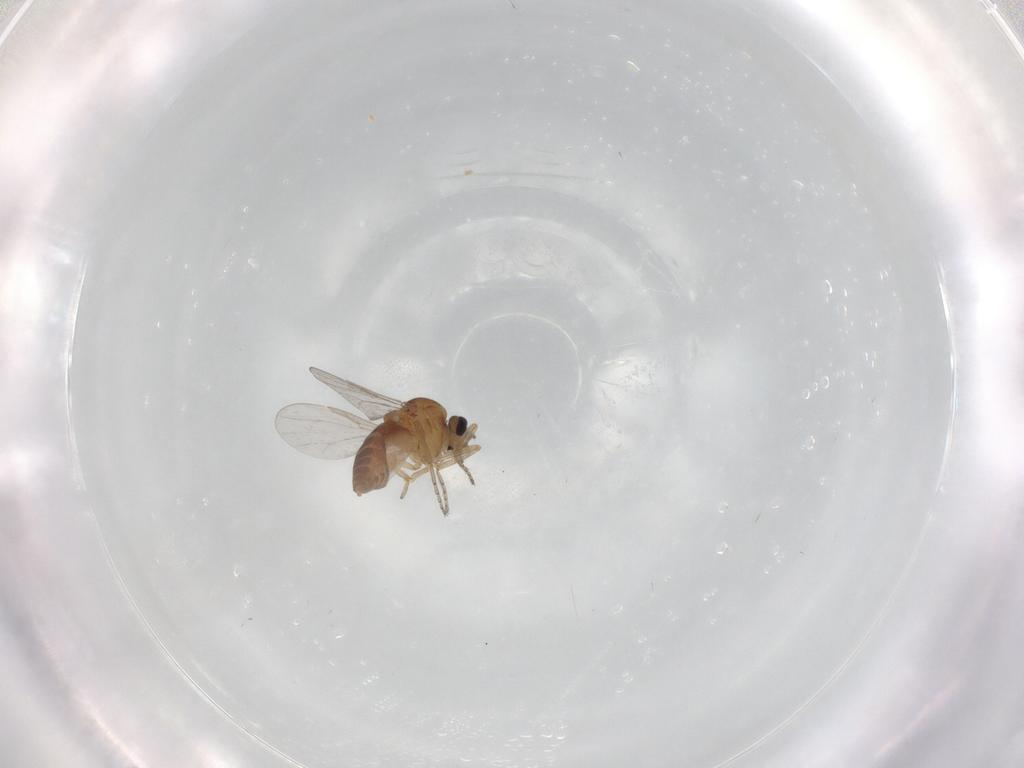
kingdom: Animalia
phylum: Arthropoda
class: Insecta
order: Diptera
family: Ceratopogonidae
